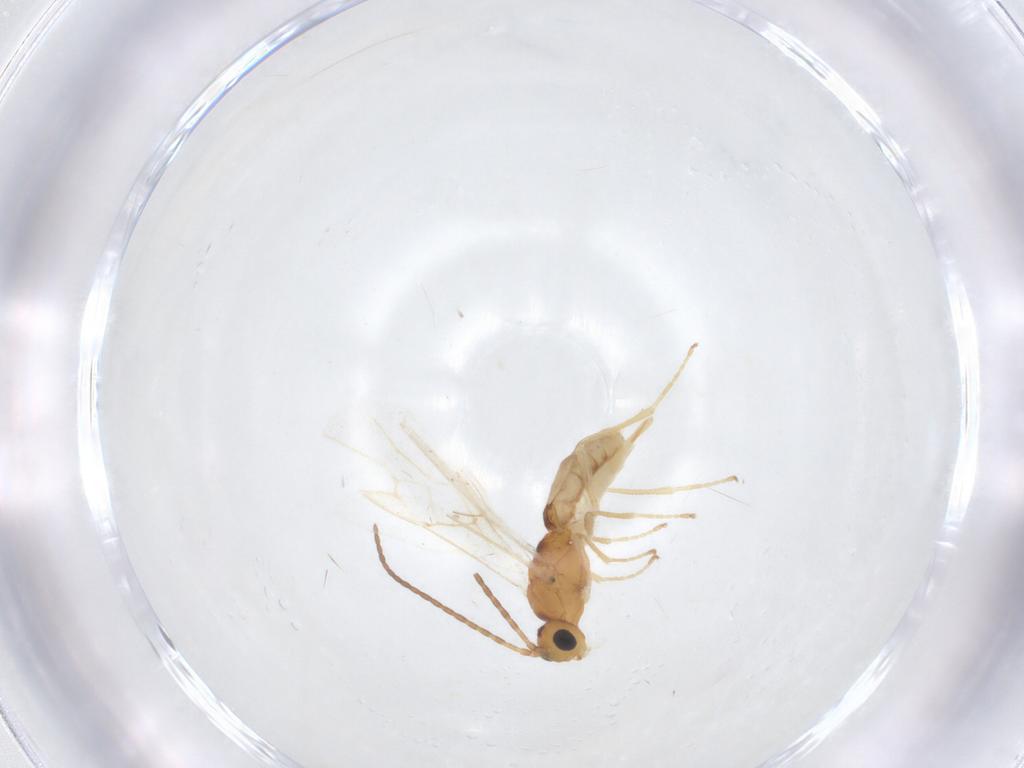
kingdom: Animalia
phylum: Arthropoda
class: Insecta
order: Hymenoptera
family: Braconidae
